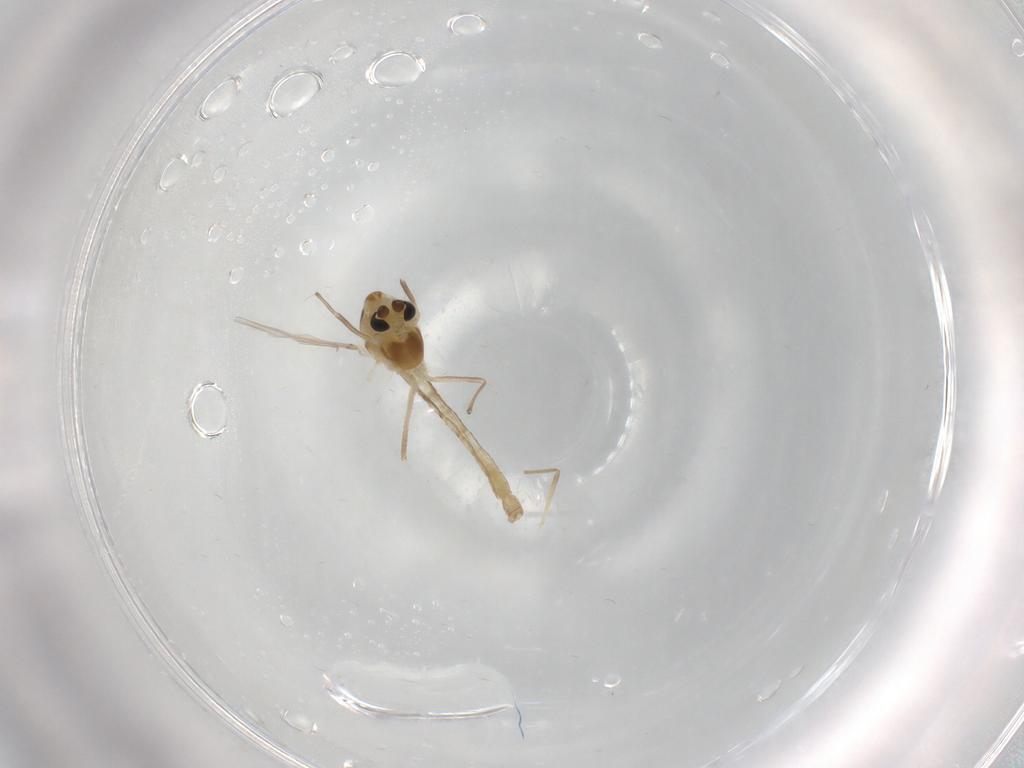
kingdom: Animalia
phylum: Arthropoda
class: Insecta
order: Diptera
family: Chironomidae
